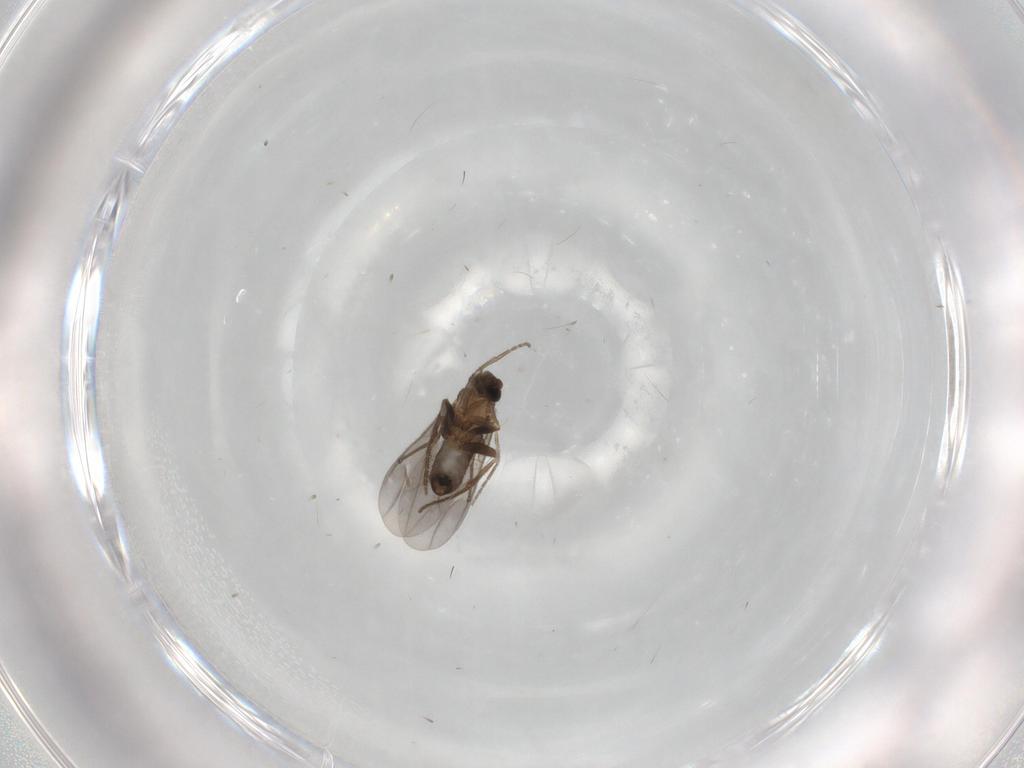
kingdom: Animalia
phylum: Arthropoda
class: Insecta
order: Diptera
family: Phoridae
